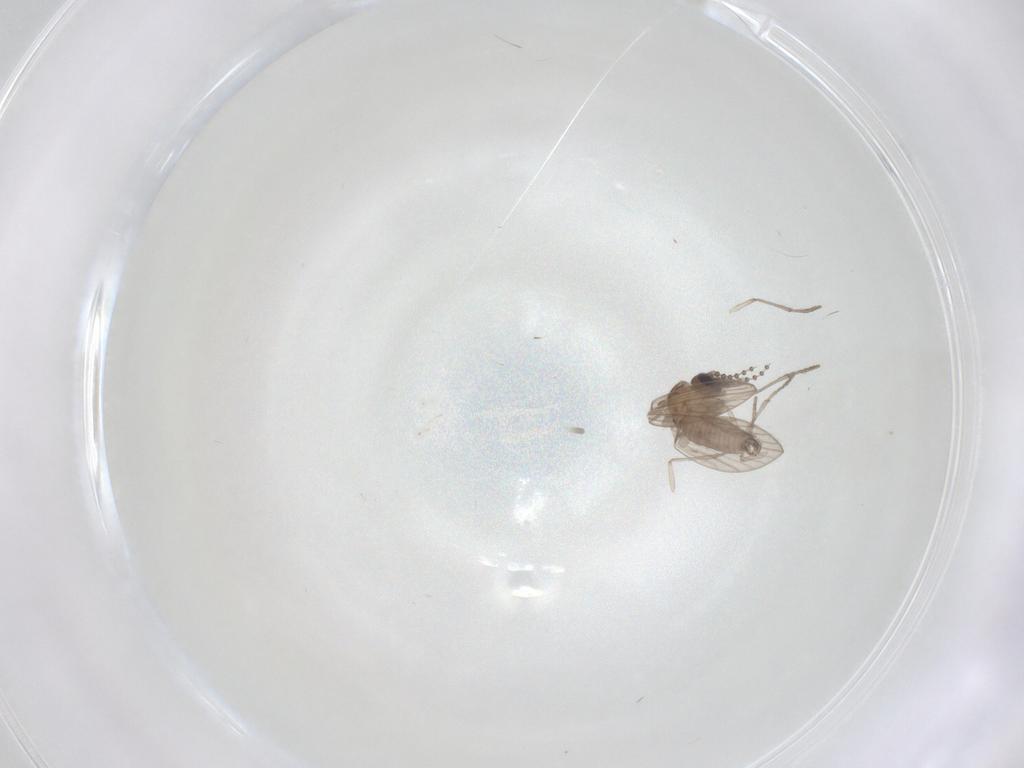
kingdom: Animalia
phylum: Arthropoda
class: Insecta
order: Diptera
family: Psychodidae
